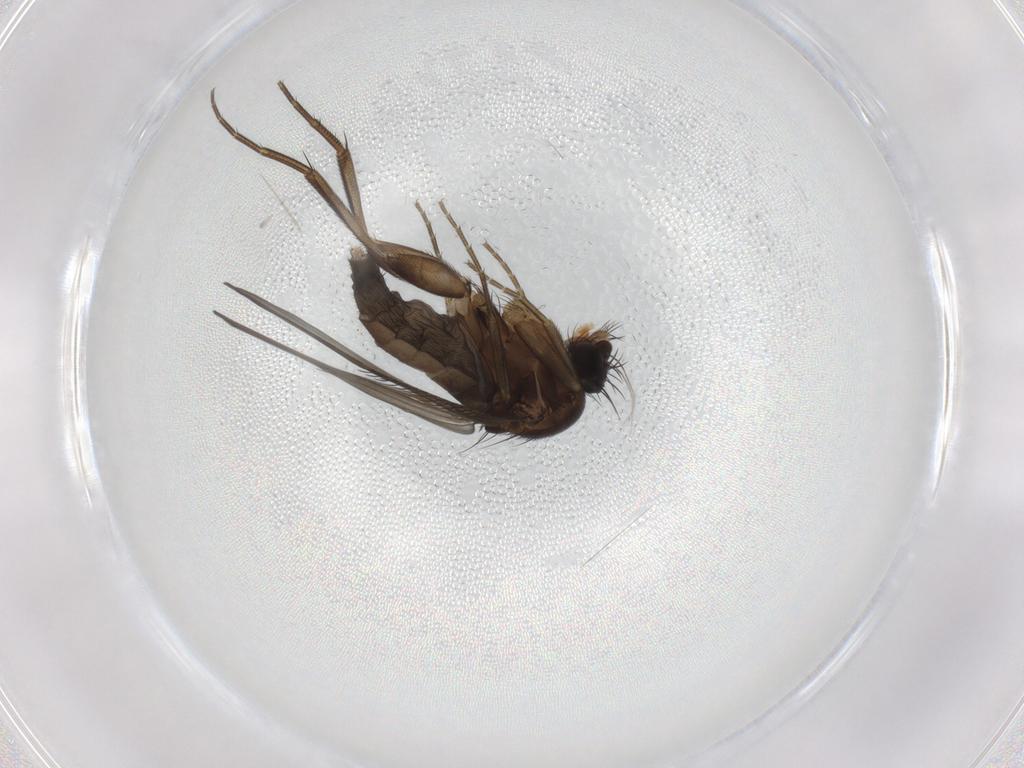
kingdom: Animalia
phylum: Arthropoda
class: Insecta
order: Diptera
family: Phoridae
